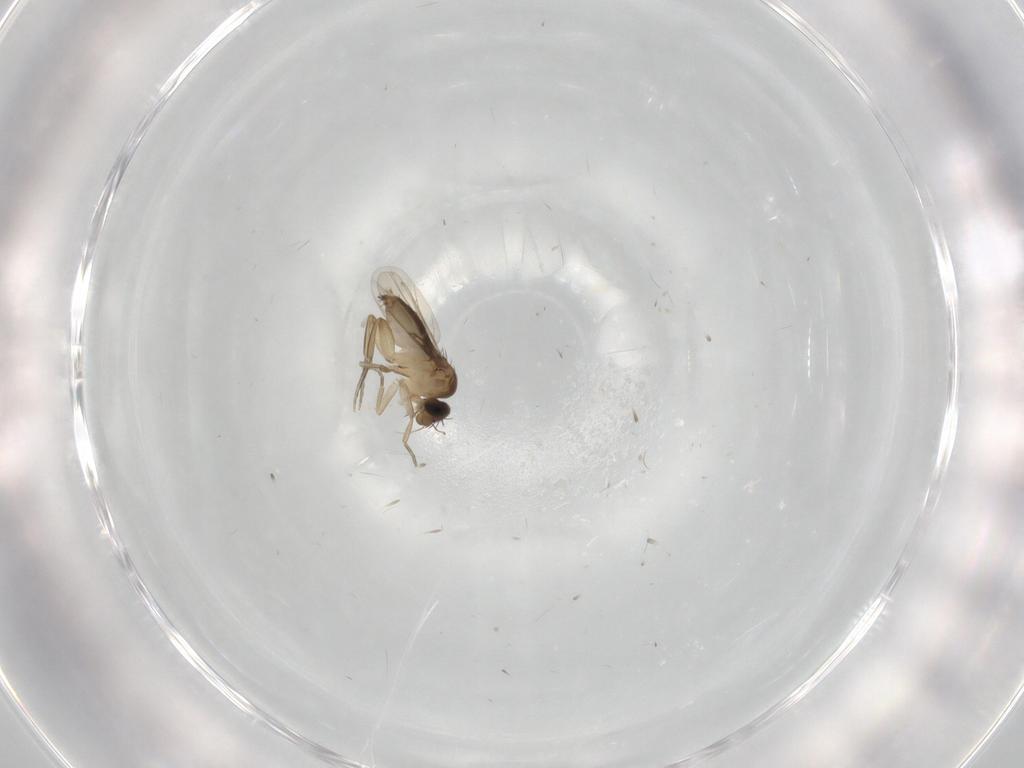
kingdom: Animalia
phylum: Arthropoda
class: Insecta
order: Diptera
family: Phoridae
